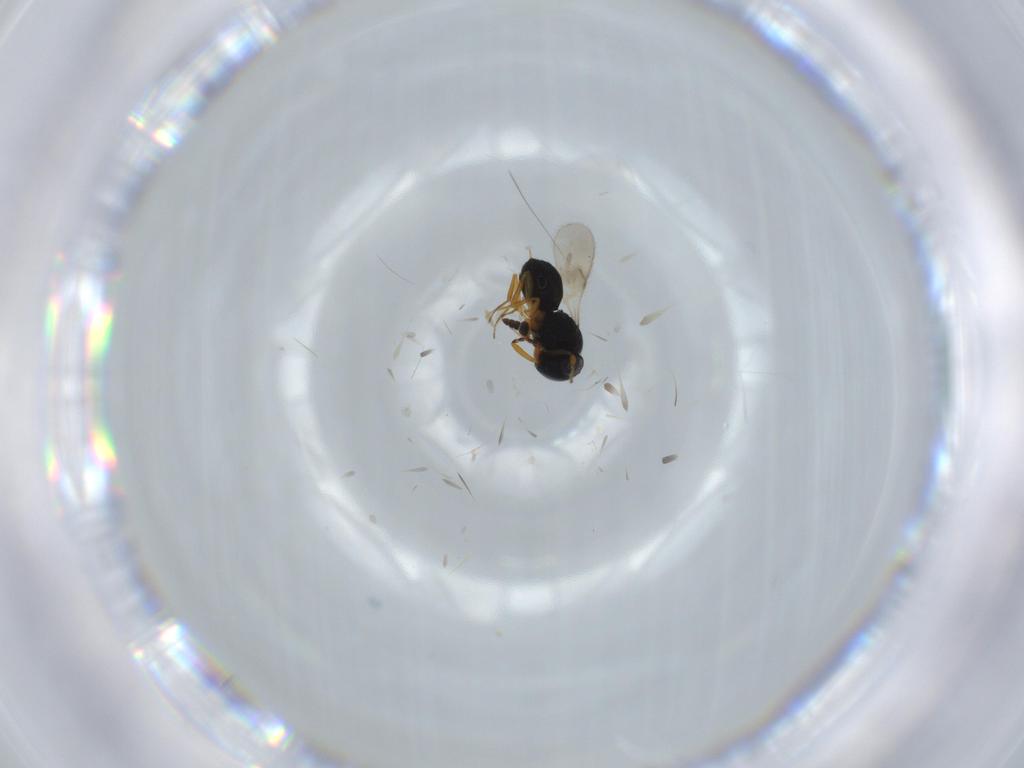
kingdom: Animalia
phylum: Arthropoda
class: Insecta
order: Hymenoptera
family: Scelionidae
